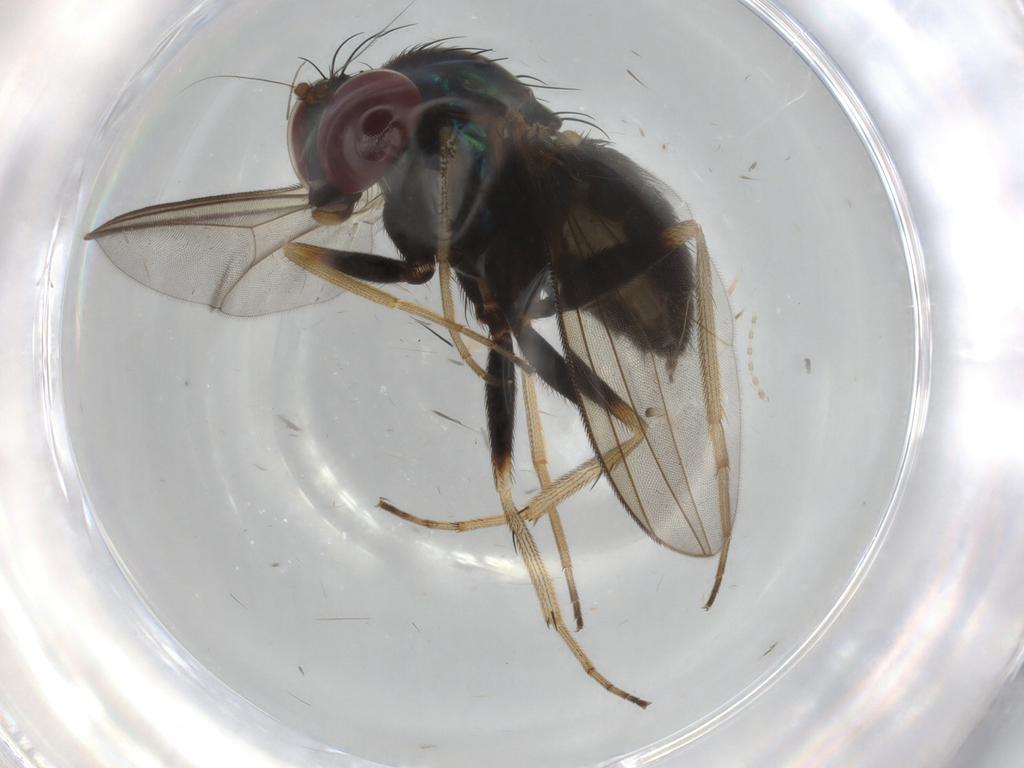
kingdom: Animalia
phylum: Arthropoda
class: Insecta
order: Diptera
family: Dolichopodidae
